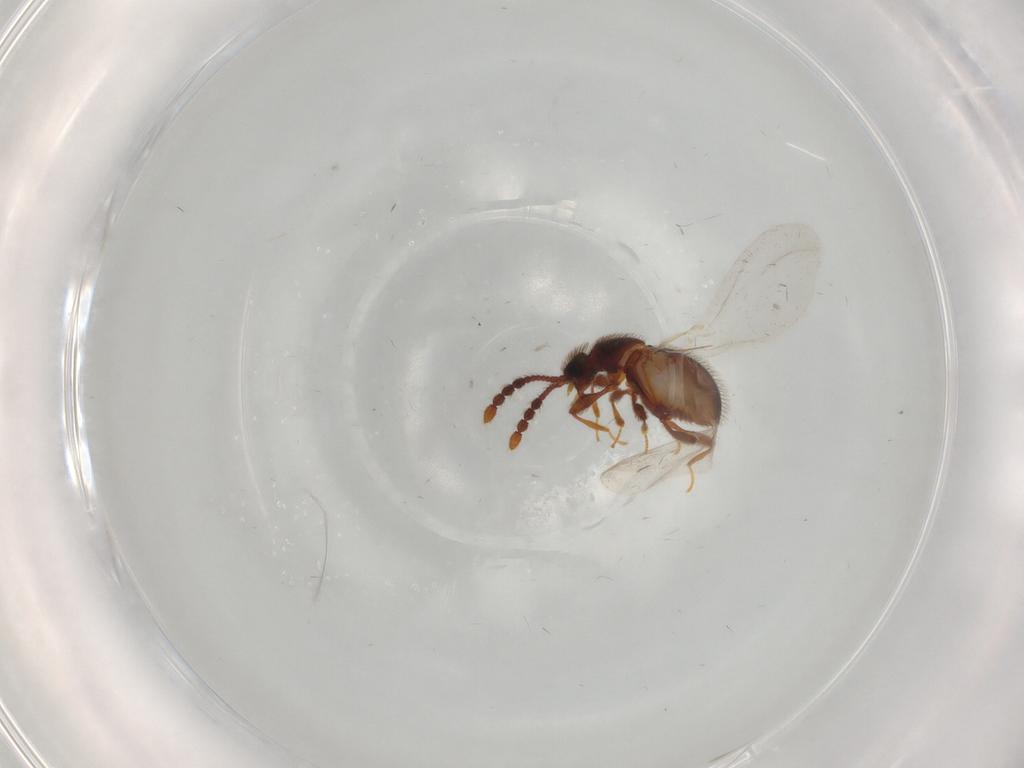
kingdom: Animalia
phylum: Arthropoda
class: Insecta
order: Coleoptera
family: Staphylinidae
